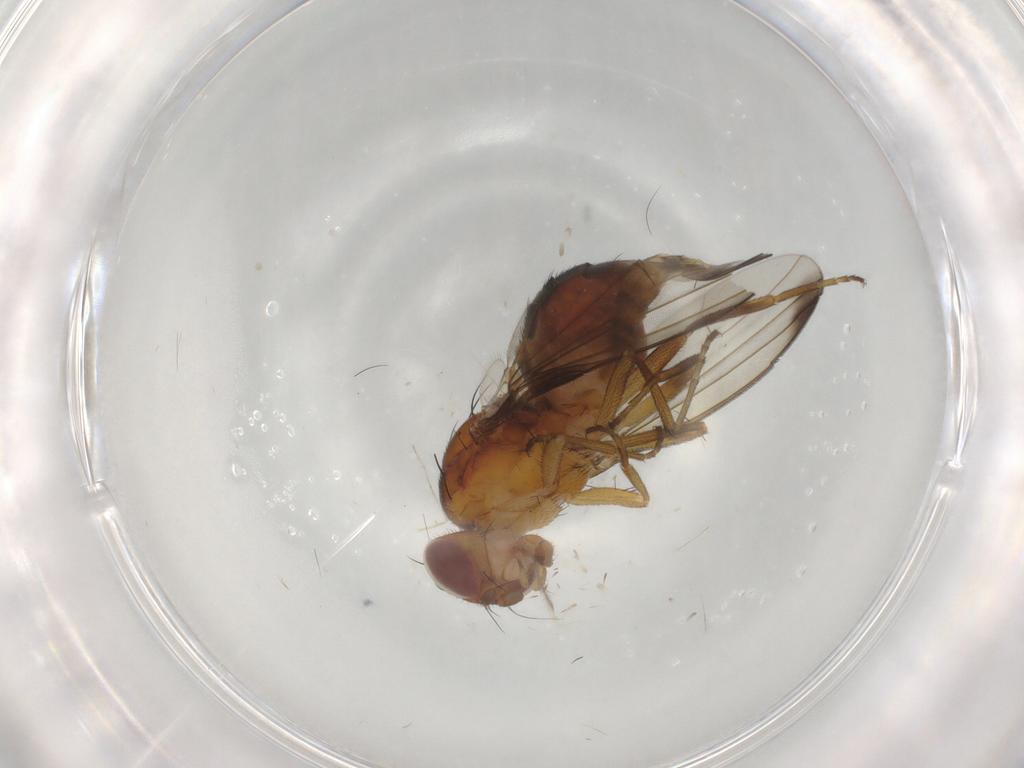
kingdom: Animalia
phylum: Arthropoda
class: Insecta
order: Diptera
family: Piophilidae
